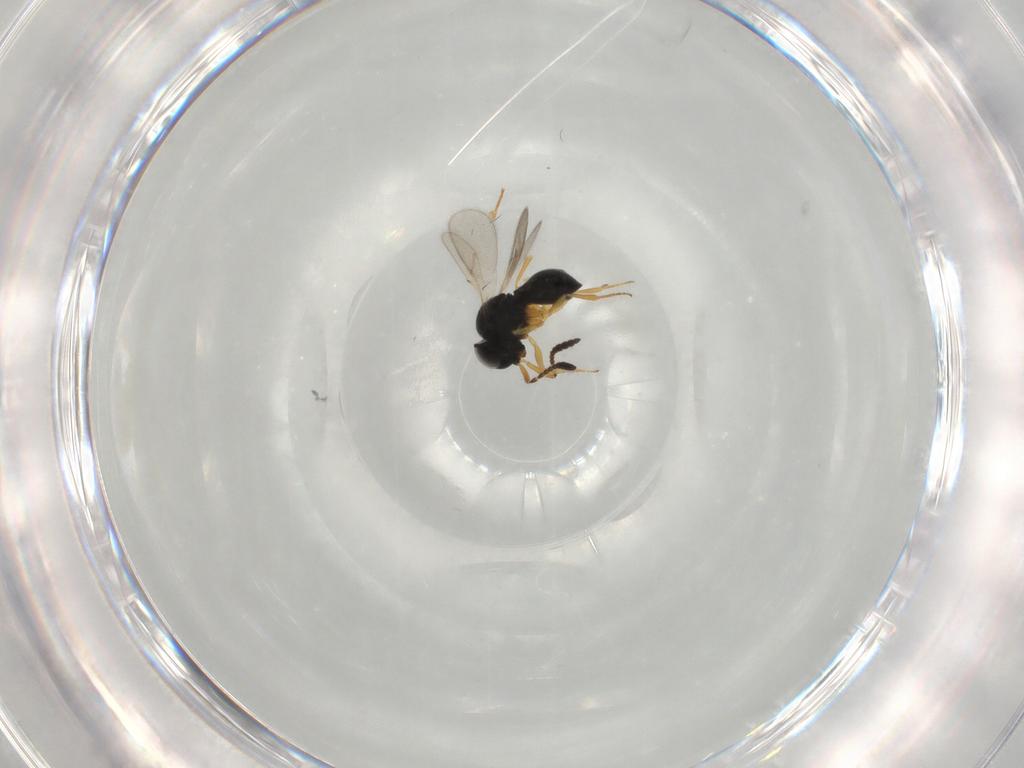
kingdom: Animalia
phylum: Arthropoda
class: Insecta
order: Hymenoptera
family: Scelionidae
